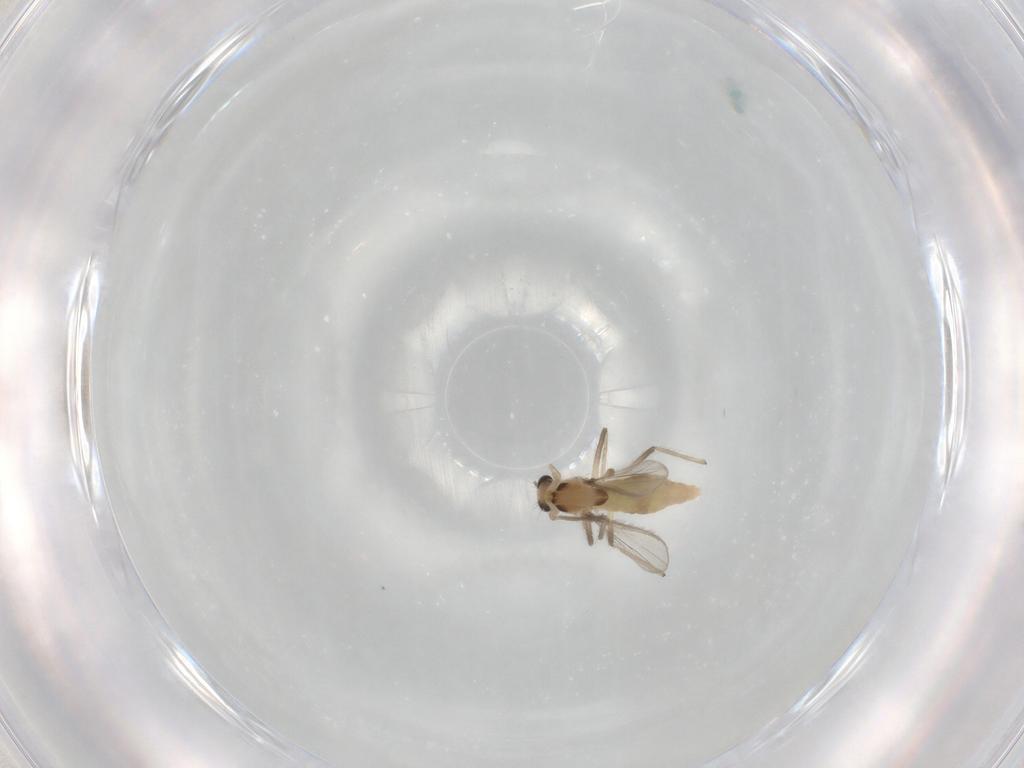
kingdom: Animalia
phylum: Arthropoda
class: Insecta
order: Diptera
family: Chironomidae
